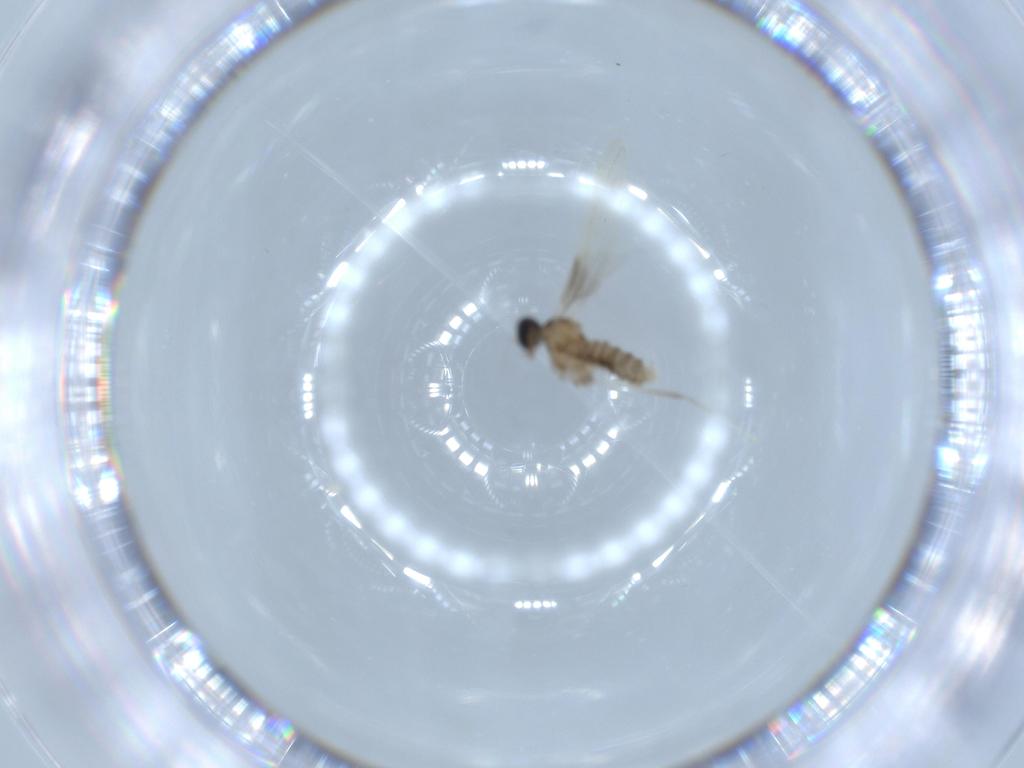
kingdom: Animalia
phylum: Arthropoda
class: Insecta
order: Diptera
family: Cecidomyiidae
